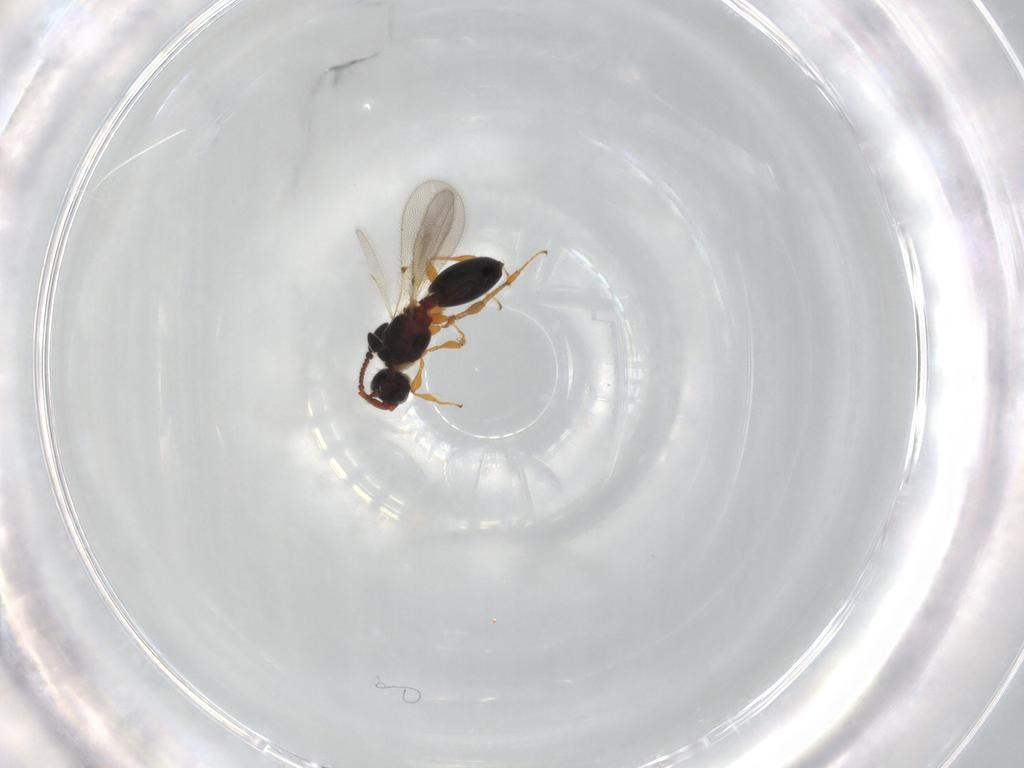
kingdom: Animalia
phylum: Arthropoda
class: Insecta
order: Hymenoptera
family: Diapriidae
